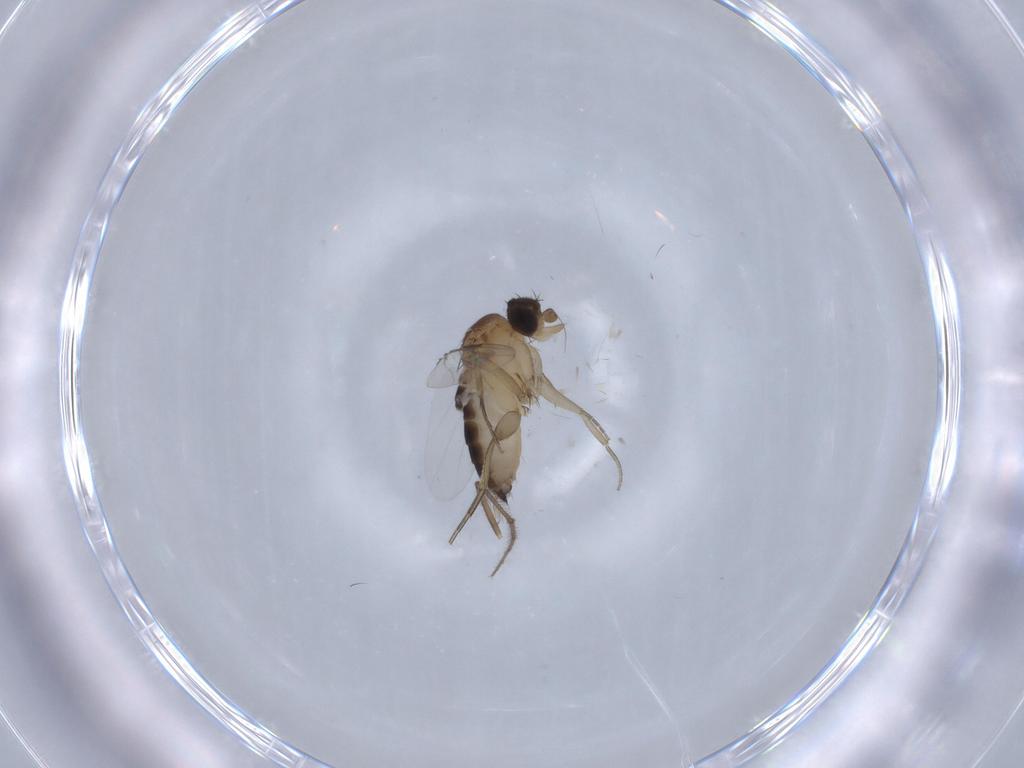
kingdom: Animalia
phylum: Arthropoda
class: Insecta
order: Diptera
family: Chironomidae
